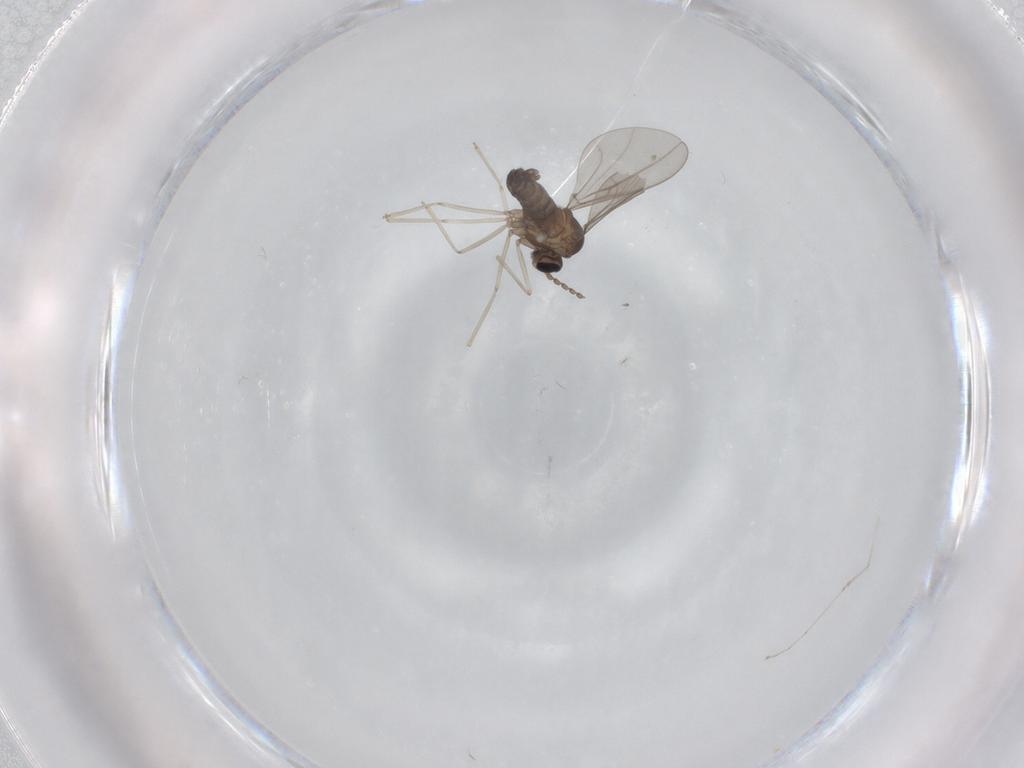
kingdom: Animalia
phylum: Arthropoda
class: Insecta
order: Diptera
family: Cecidomyiidae
